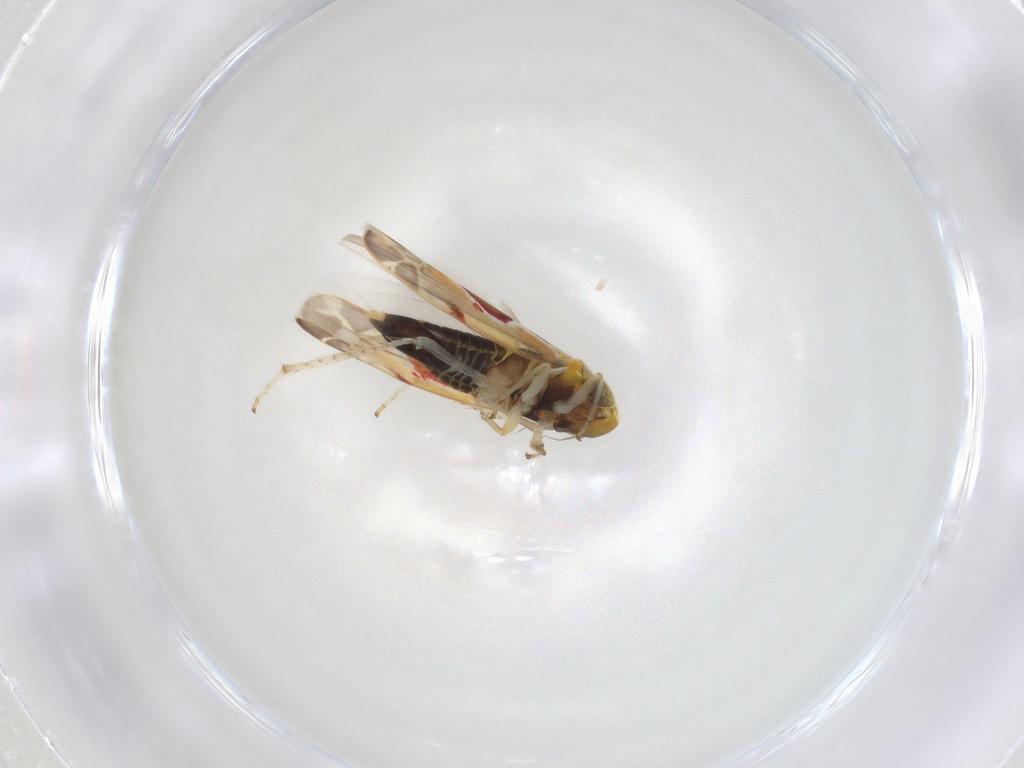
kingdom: Animalia
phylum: Arthropoda
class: Insecta
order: Hemiptera
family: Cicadellidae
